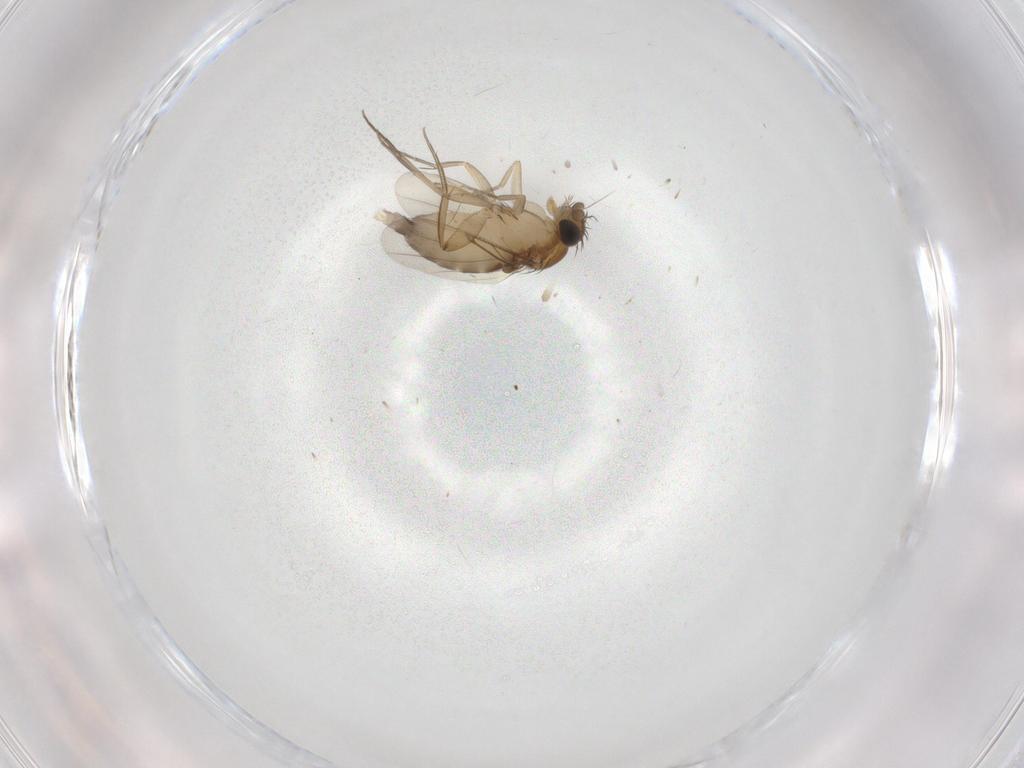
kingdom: Animalia
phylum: Arthropoda
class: Insecta
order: Diptera
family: Phoridae
